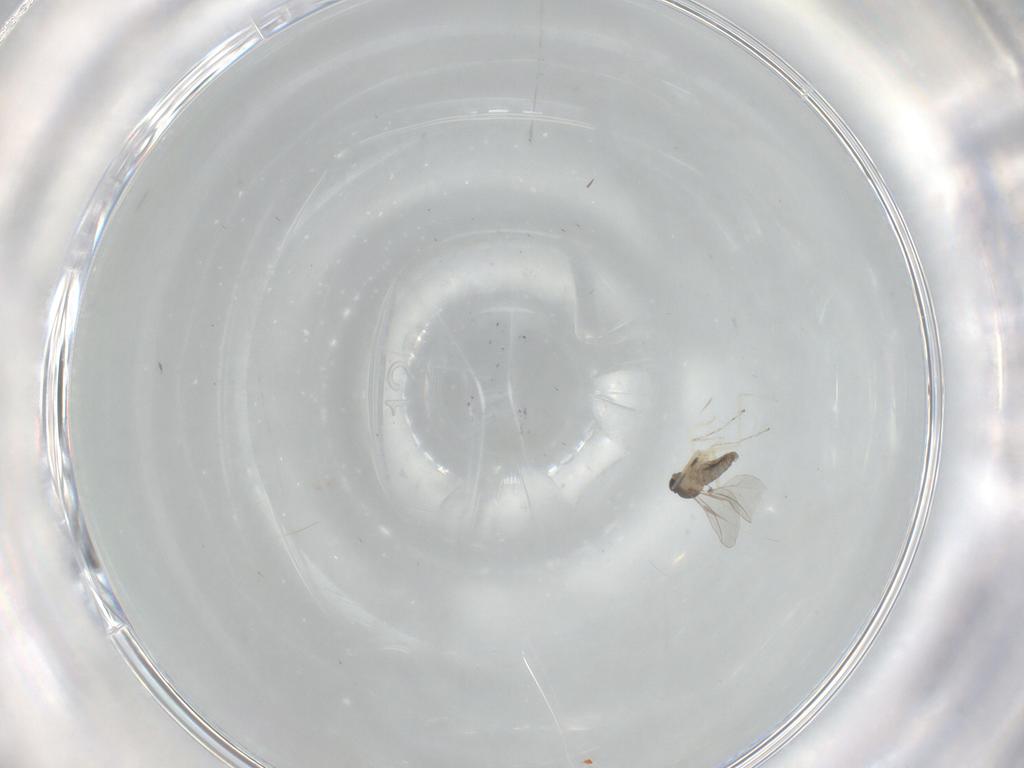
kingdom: Animalia
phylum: Arthropoda
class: Insecta
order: Diptera
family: Cecidomyiidae
